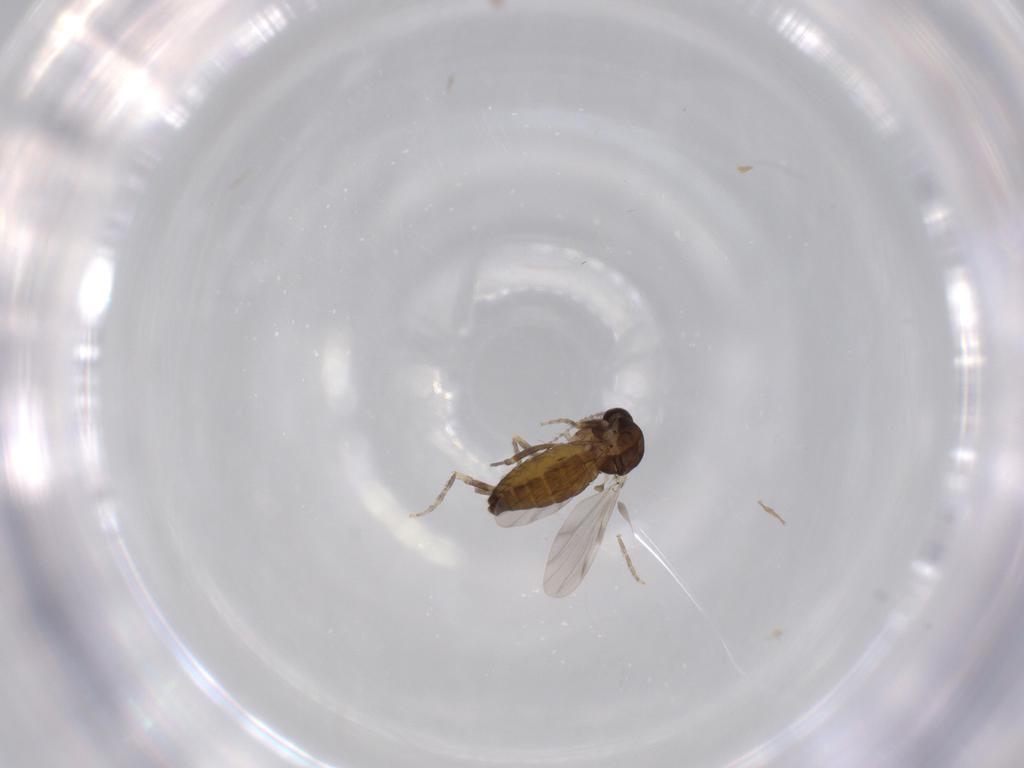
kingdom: Animalia
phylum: Arthropoda
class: Insecta
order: Diptera
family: Ceratopogonidae
